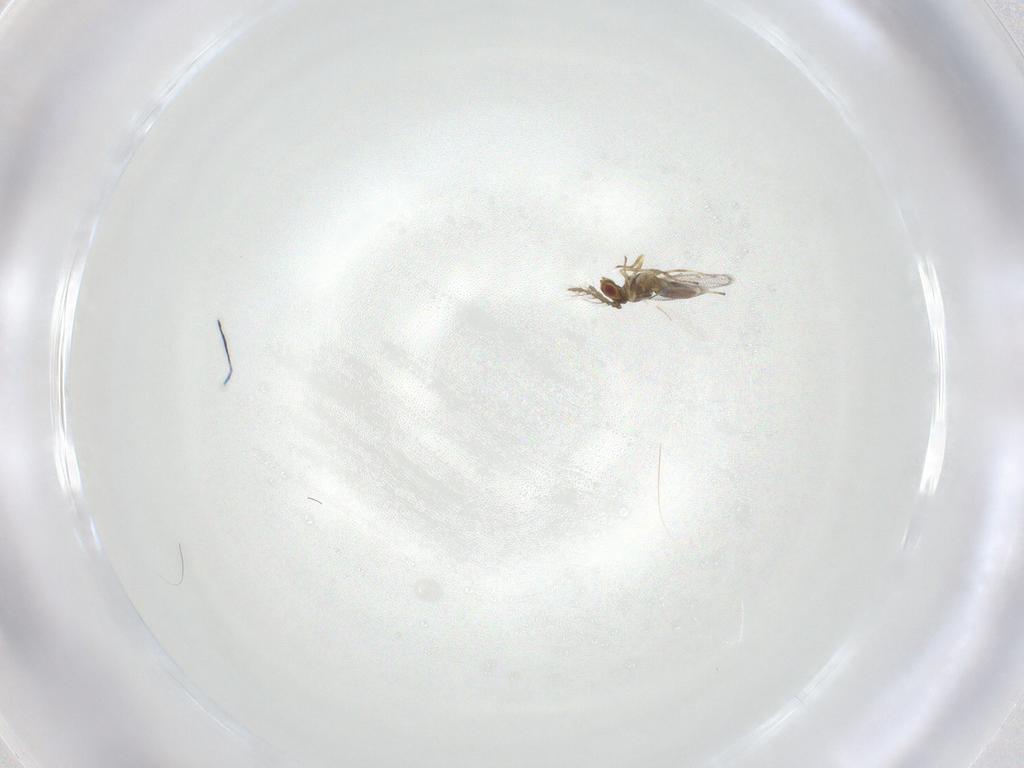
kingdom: Animalia
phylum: Arthropoda
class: Insecta
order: Hymenoptera
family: Eulophidae
